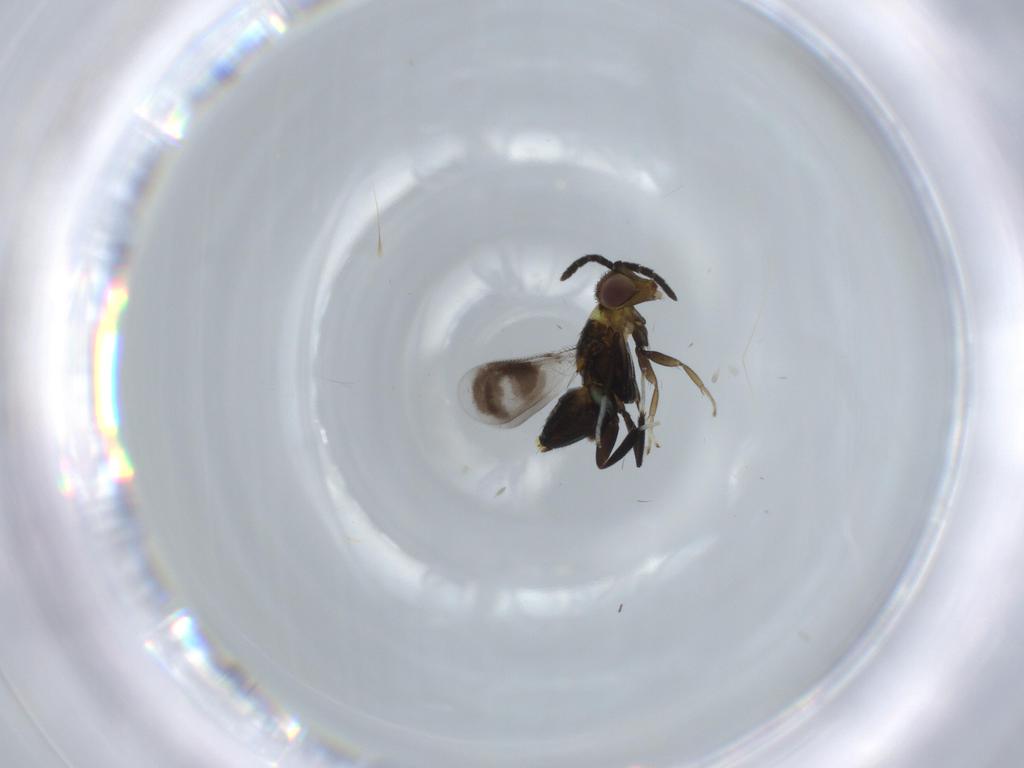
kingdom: Animalia
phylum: Arthropoda
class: Insecta
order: Hymenoptera
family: Aphelinidae
